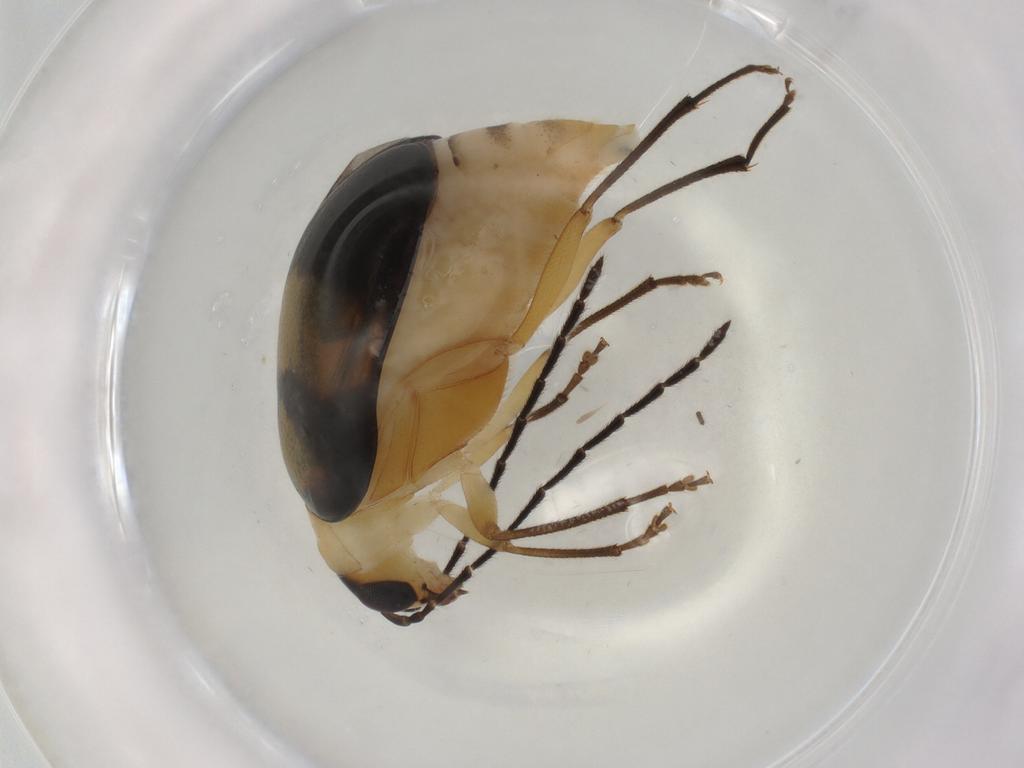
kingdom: Animalia
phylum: Arthropoda
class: Insecta
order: Coleoptera
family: Chrysomelidae
